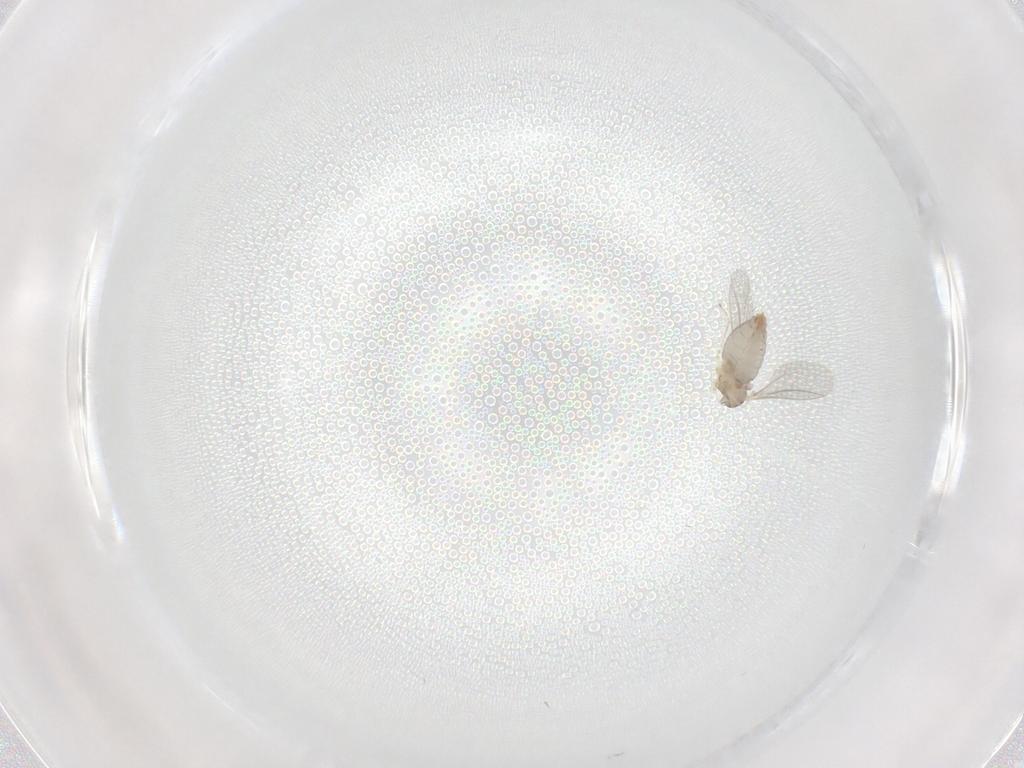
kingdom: Animalia
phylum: Arthropoda
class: Insecta
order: Diptera
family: Cecidomyiidae
